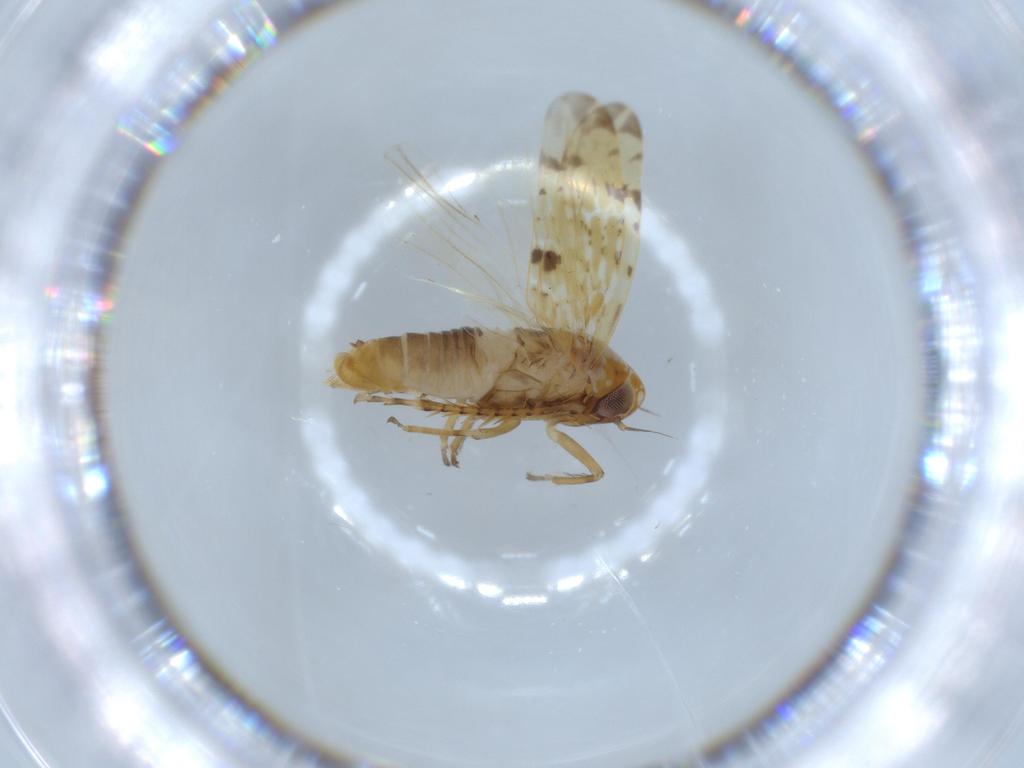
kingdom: Animalia
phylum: Arthropoda
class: Insecta
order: Hemiptera
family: Cicadellidae
